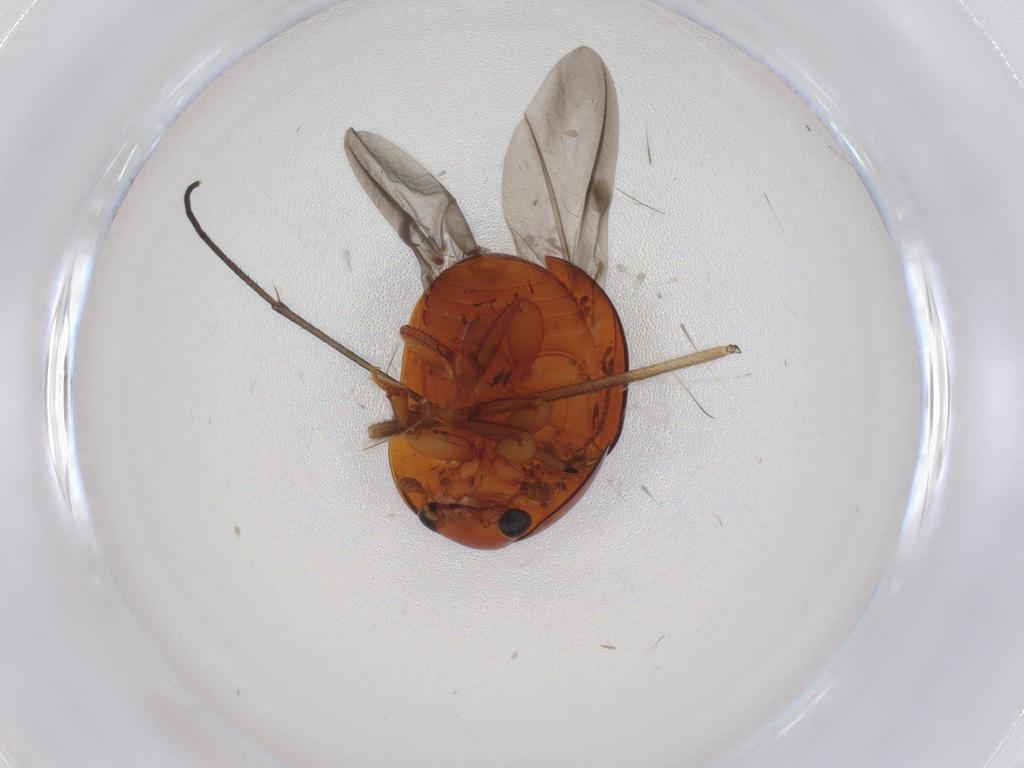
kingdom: Animalia
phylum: Arthropoda
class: Insecta
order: Coleoptera
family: Nitidulidae
